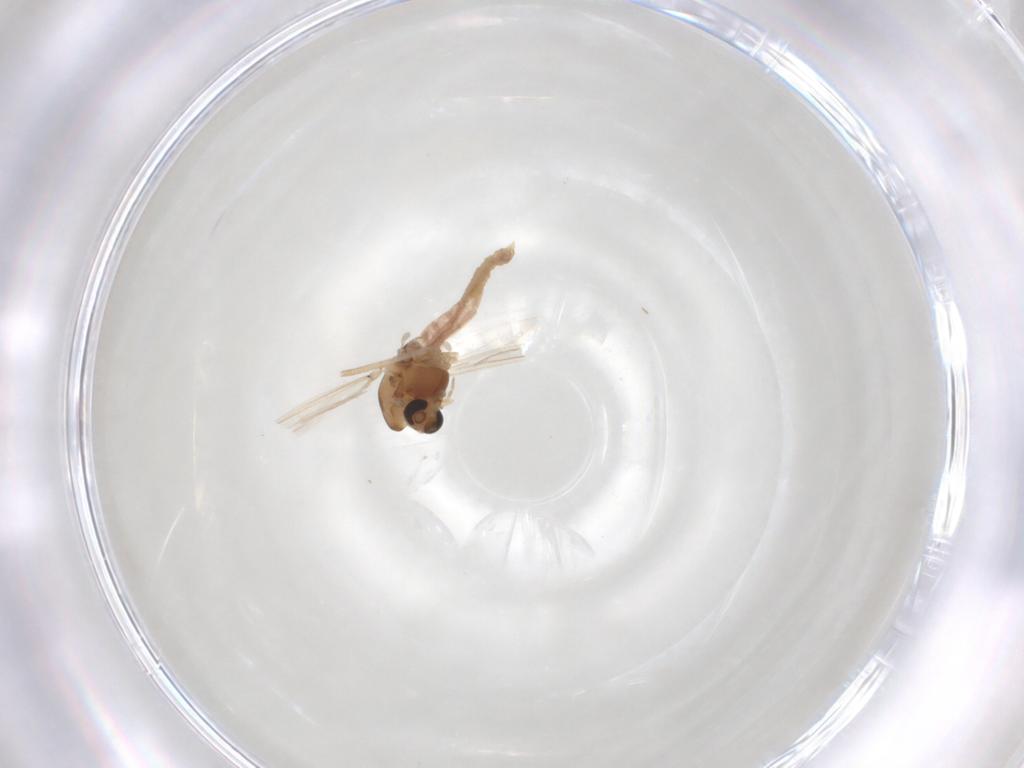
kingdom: Animalia
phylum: Arthropoda
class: Insecta
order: Diptera
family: Chironomidae
